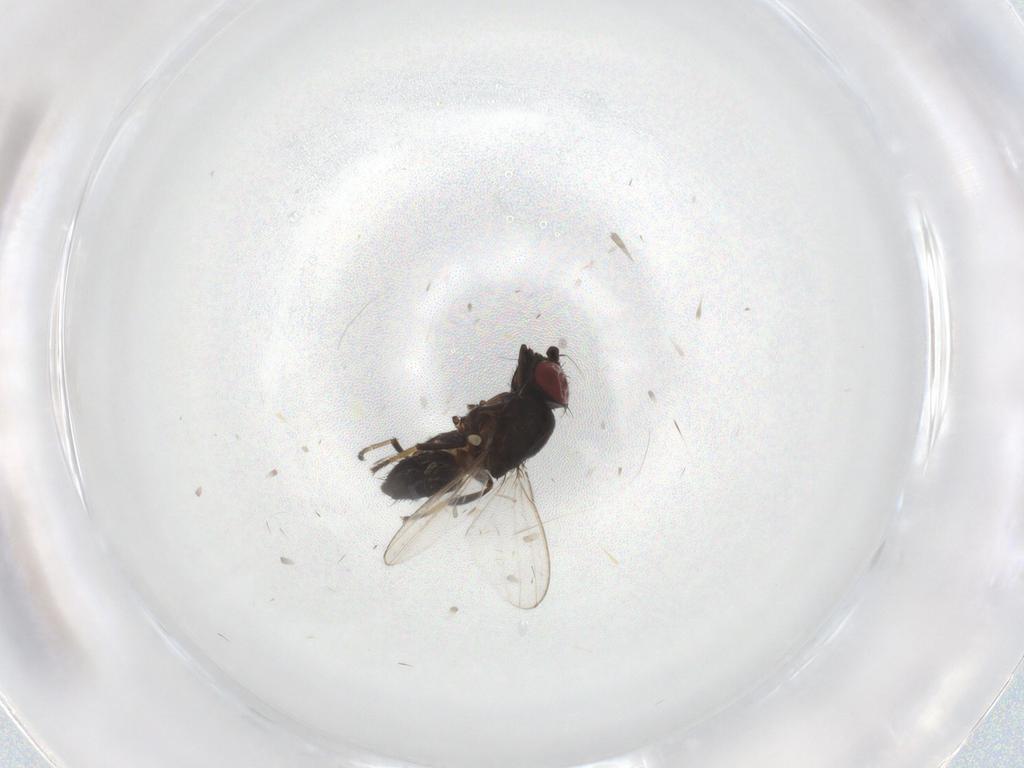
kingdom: Animalia
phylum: Arthropoda
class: Insecta
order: Diptera
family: Milichiidae
